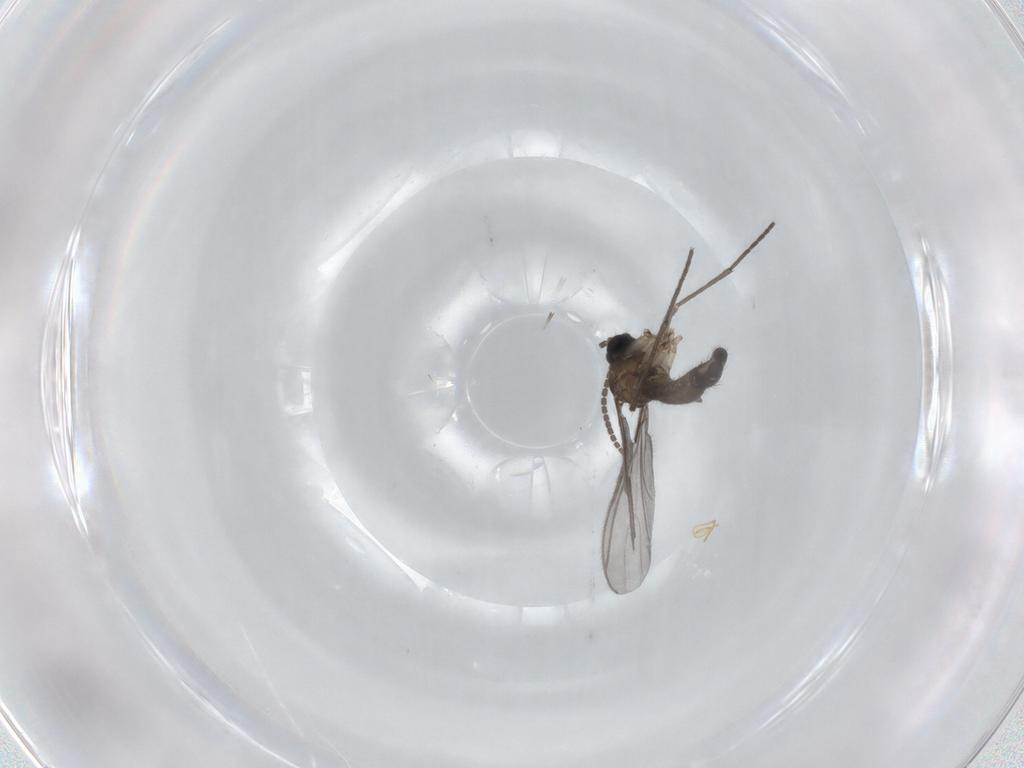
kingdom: Animalia
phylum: Arthropoda
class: Insecta
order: Diptera
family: Sciaridae
